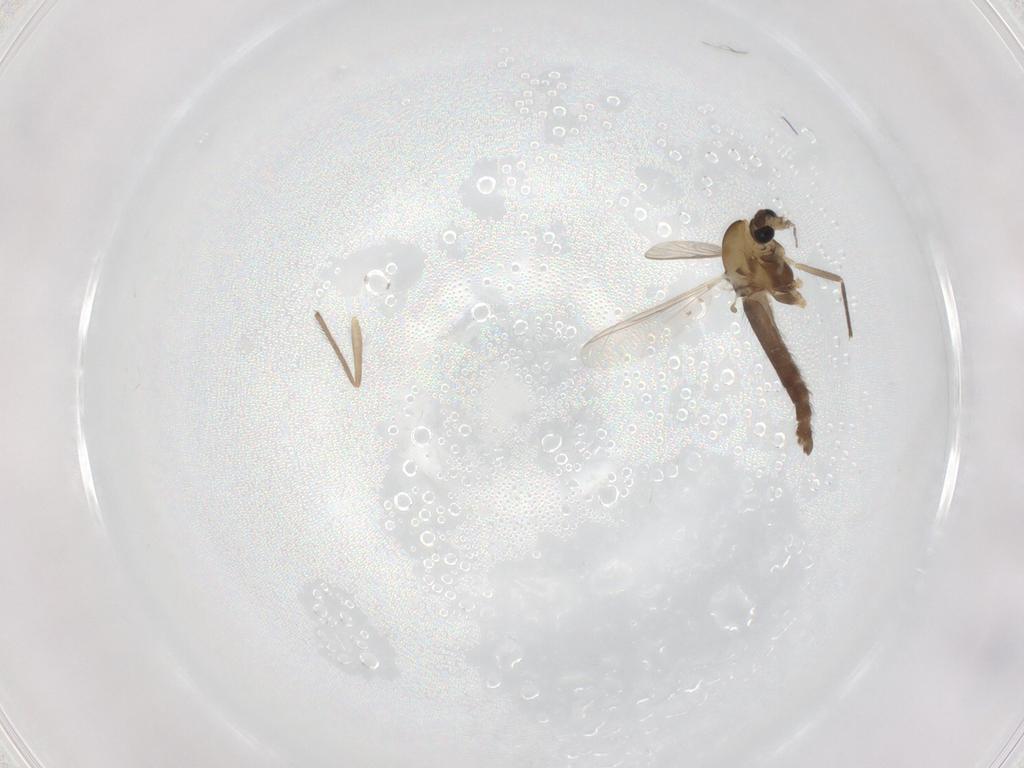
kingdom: Animalia
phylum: Arthropoda
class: Insecta
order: Diptera
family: Chironomidae
